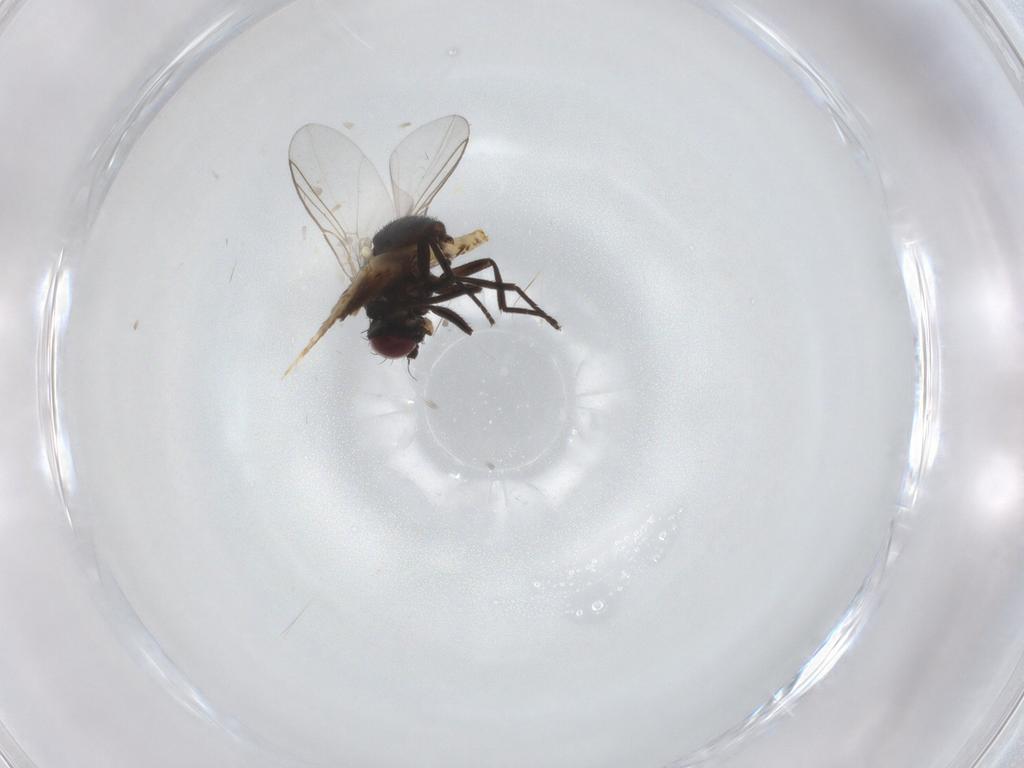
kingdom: Animalia
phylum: Arthropoda
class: Insecta
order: Diptera
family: Agromyzidae
